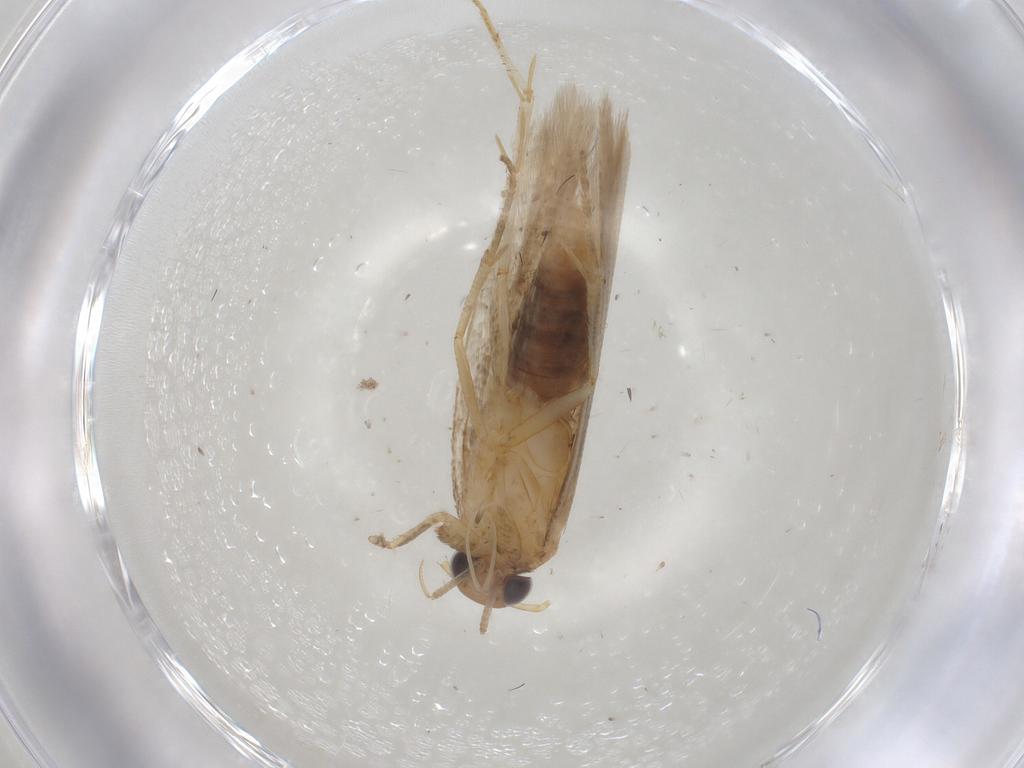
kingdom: Animalia
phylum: Arthropoda
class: Insecta
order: Lepidoptera
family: Gelechiidae
